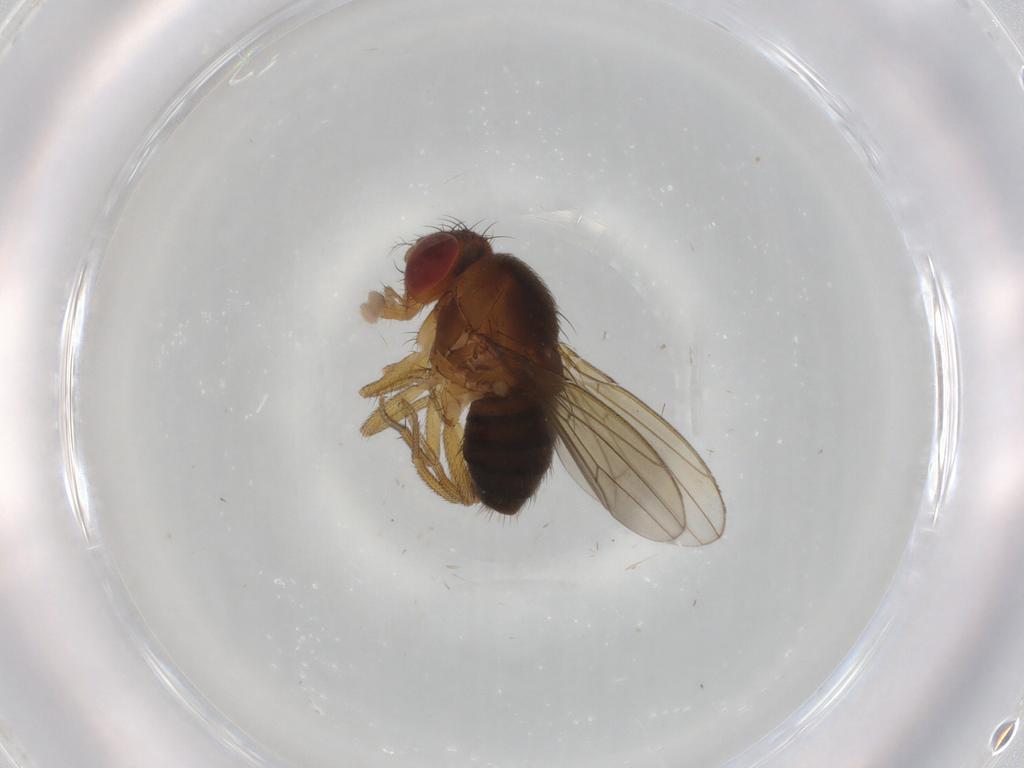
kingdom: Animalia
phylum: Arthropoda
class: Insecta
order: Diptera
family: Drosophilidae
